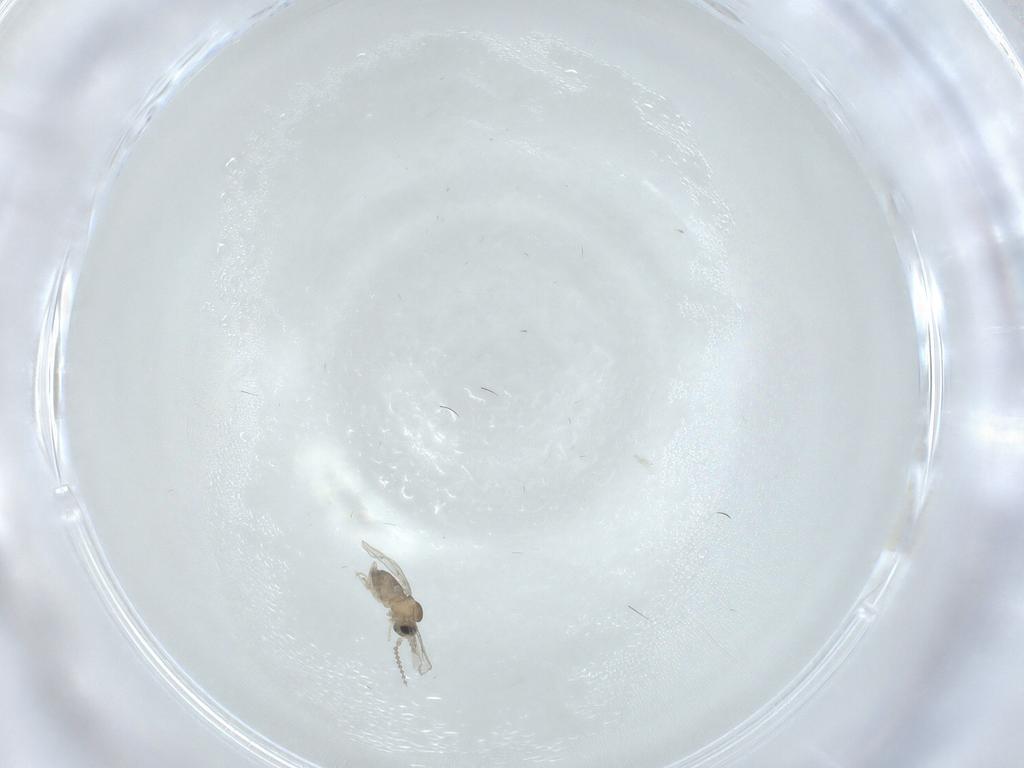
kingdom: Animalia
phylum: Arthropoda
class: Insecta
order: Diptera
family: Cecidomyiidae
